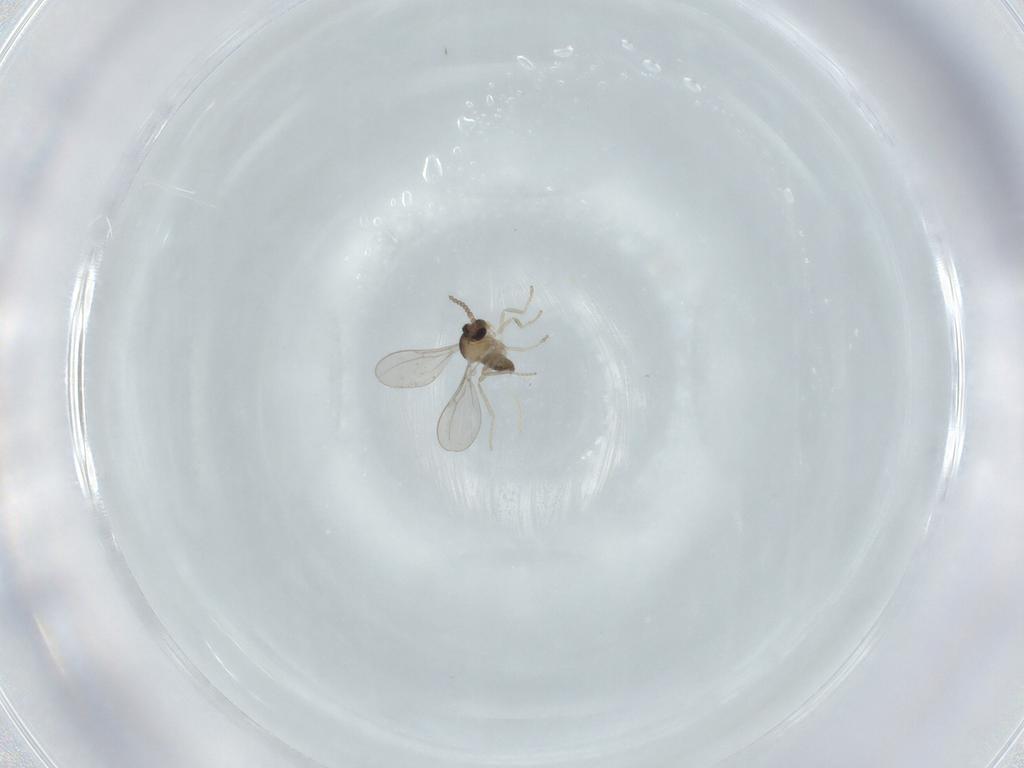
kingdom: Animalia
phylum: Arthropoda
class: Insecta
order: Diptera
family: Cecidomyiidae
